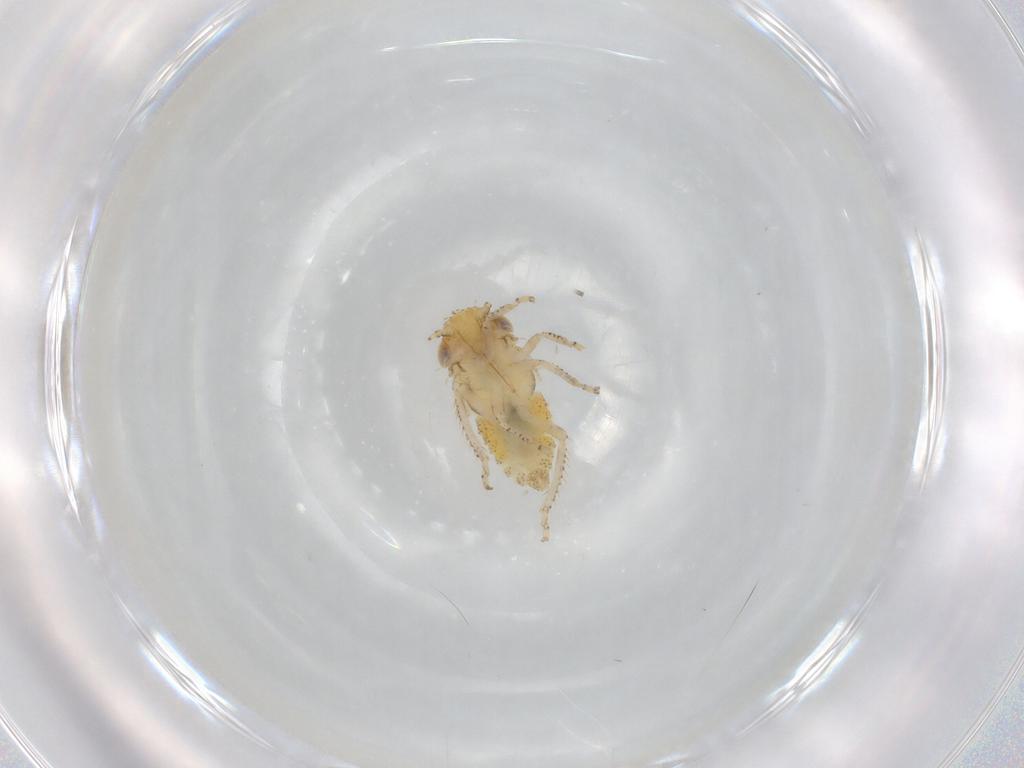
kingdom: Animalia
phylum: Arthropoda
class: Insecta
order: Hemiptera
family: Cicadellidae
